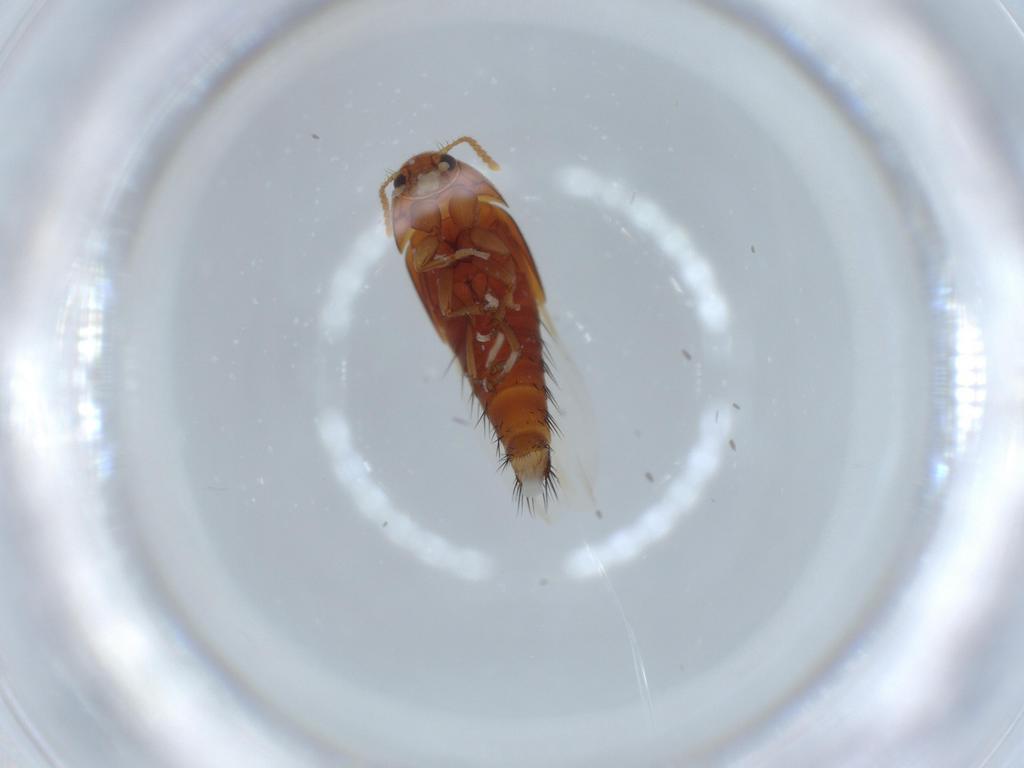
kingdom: Animalia
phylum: Arthropoda
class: Insecta
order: Coleoptera
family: Staphylinidae
